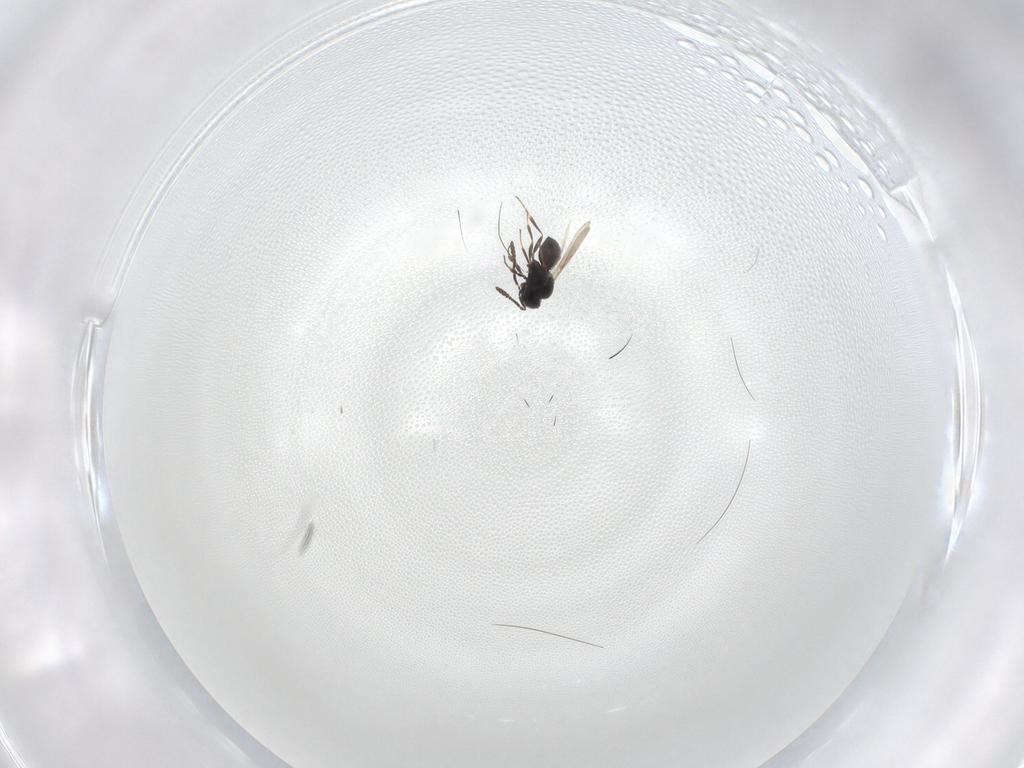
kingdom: Animalia
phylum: Arthropoda
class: Insecta
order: Hymenoptera
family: Scelionidae
